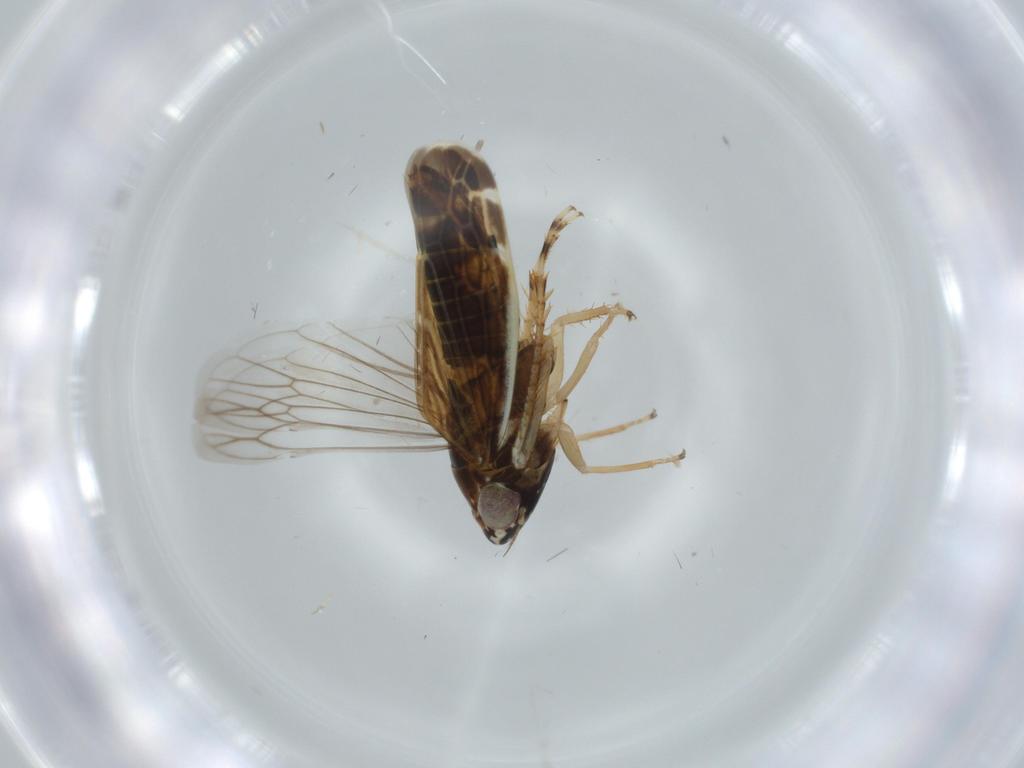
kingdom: Animalia
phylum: Arthropoda
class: Insecta
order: Hemiptera
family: Cicadellidae
